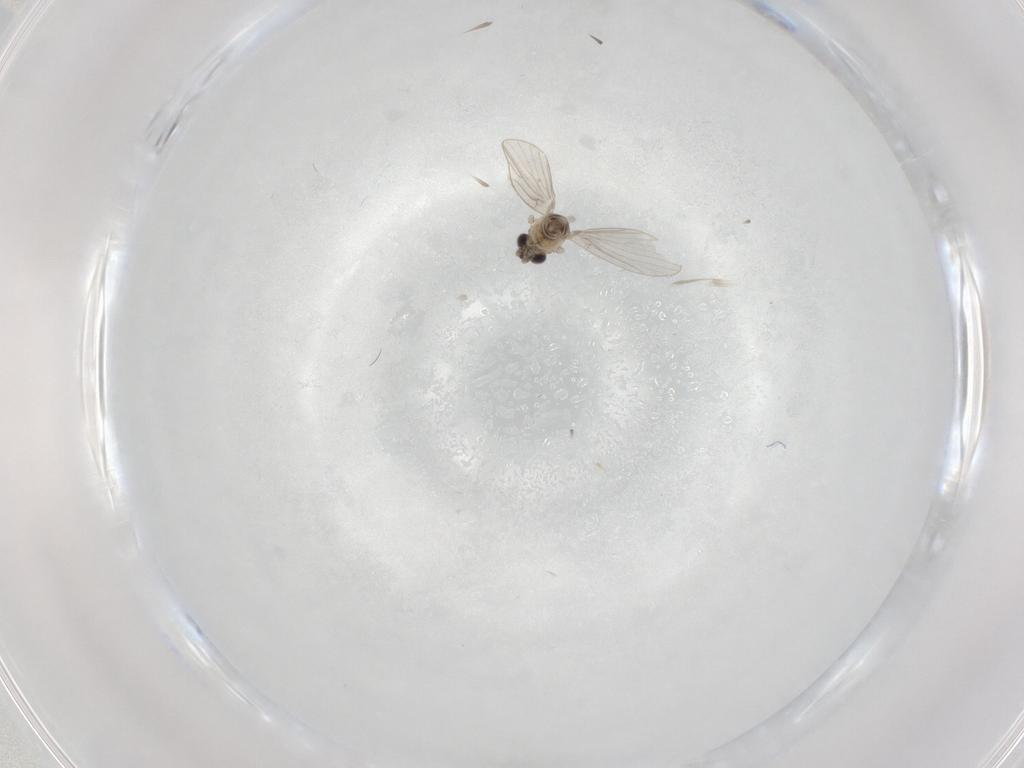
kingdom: Animalia
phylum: Arthropoda
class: Insecta
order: Diptera
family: Psychodidae
